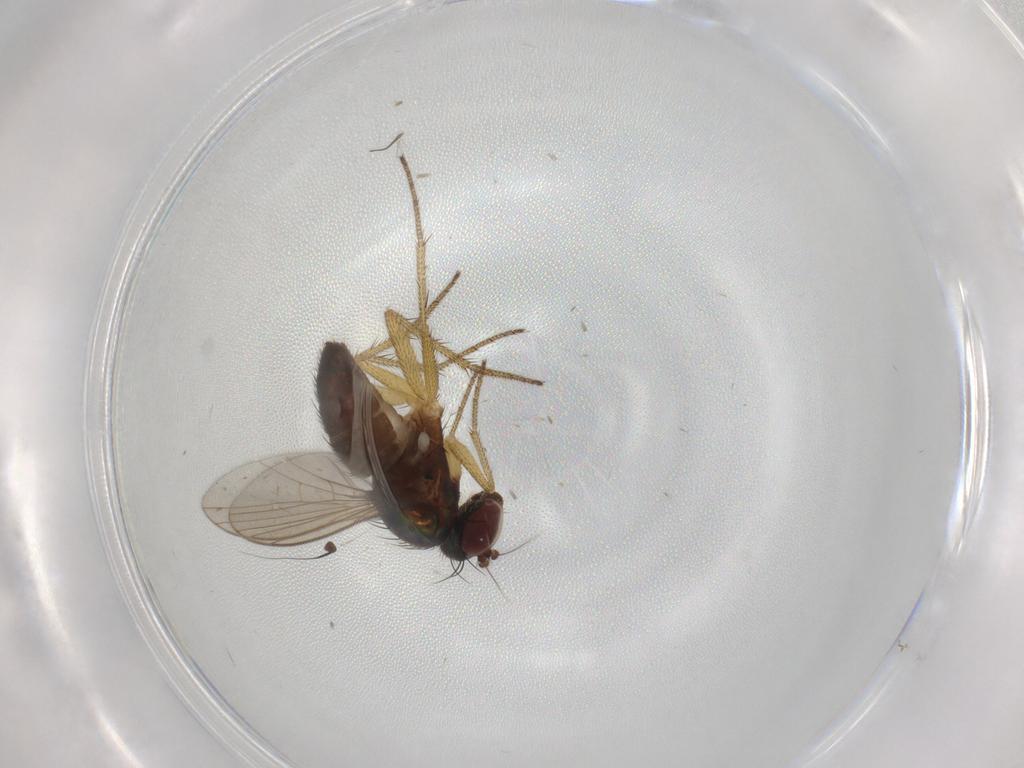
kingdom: Animalia
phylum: Arthropoda
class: Insecta
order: Diptera
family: Dolichopodidae
